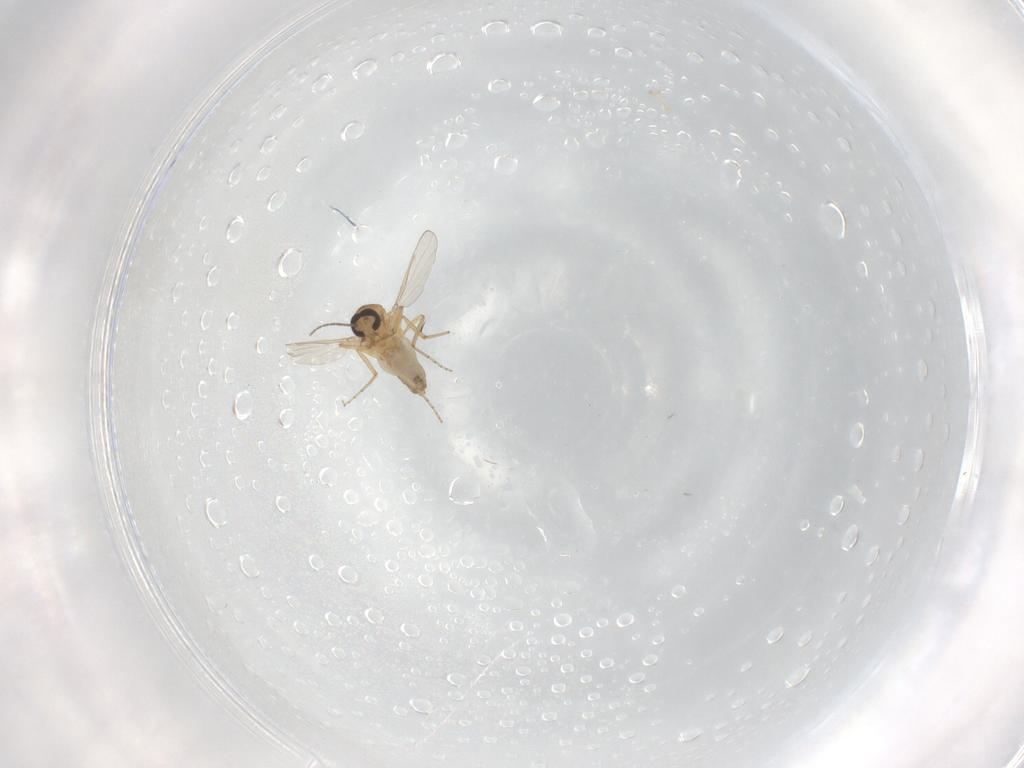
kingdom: Animalia
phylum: Arthropoda
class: Insecta
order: Diptera
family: Ceratopogonidae
